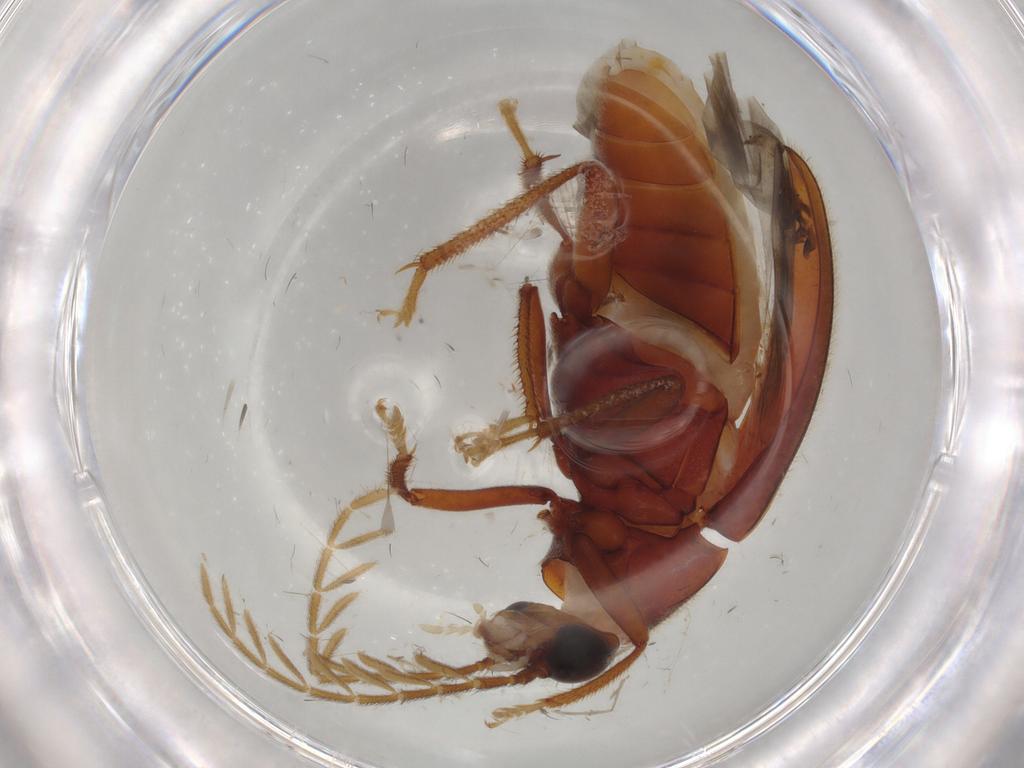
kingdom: Animalia
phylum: Arthropoda
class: Insecta
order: Coleoptera
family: Ptilodactylidae
